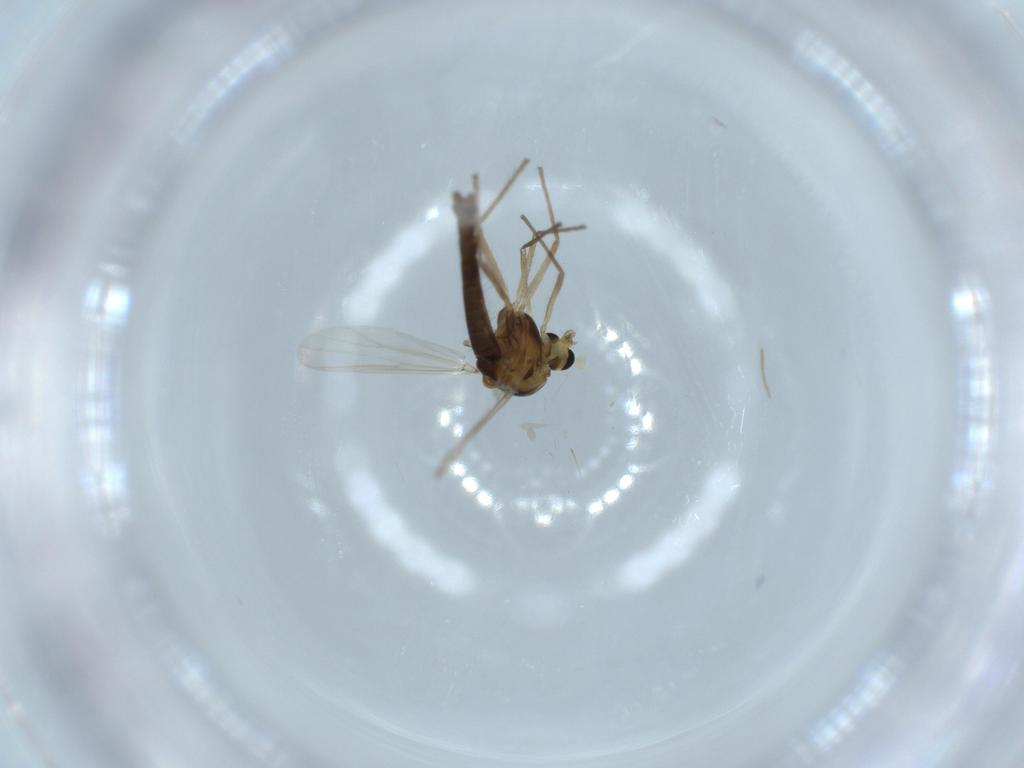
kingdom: Animalia
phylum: Arthropoda
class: Insecta
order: Diptera
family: Chironomidae
